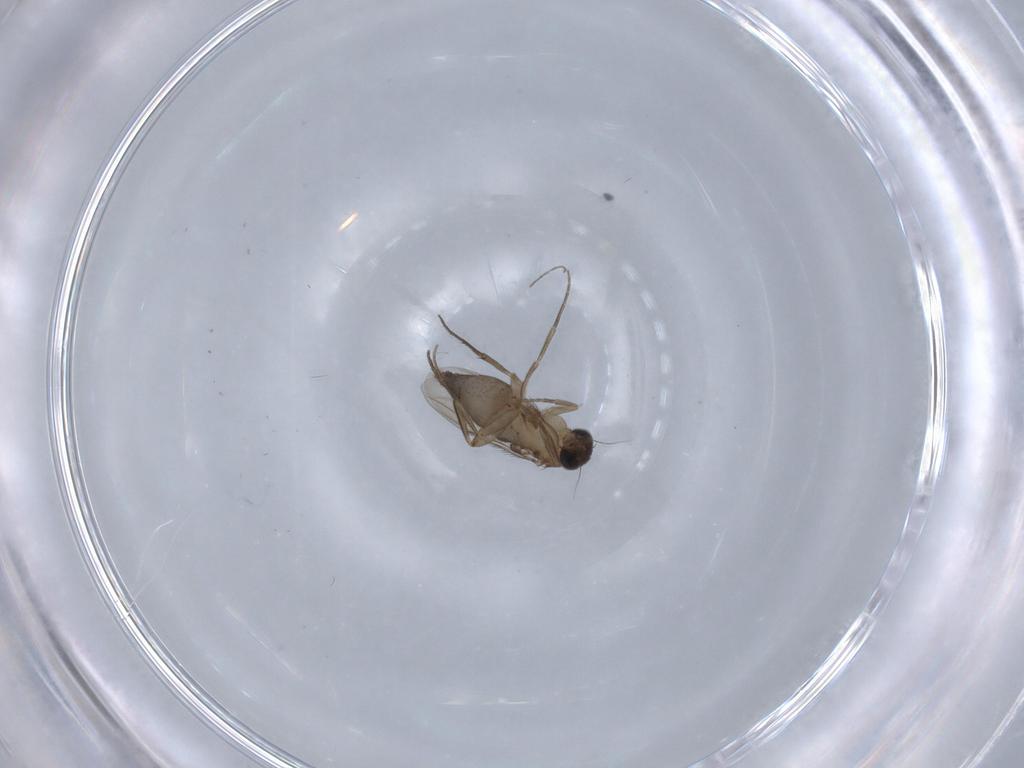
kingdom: Animalia
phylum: Arthropoda
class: Insecta
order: Diptera
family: Phoridae
